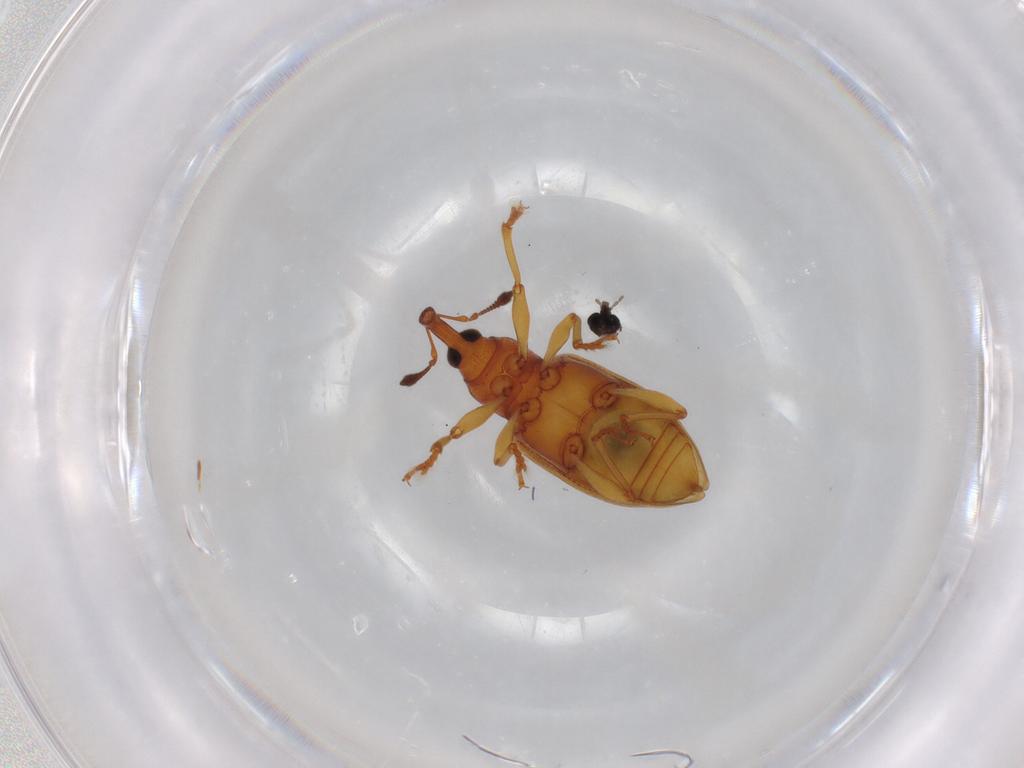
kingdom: Animalia
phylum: Arthropoda
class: Insecta
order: Coleoptera
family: Curculionidae
